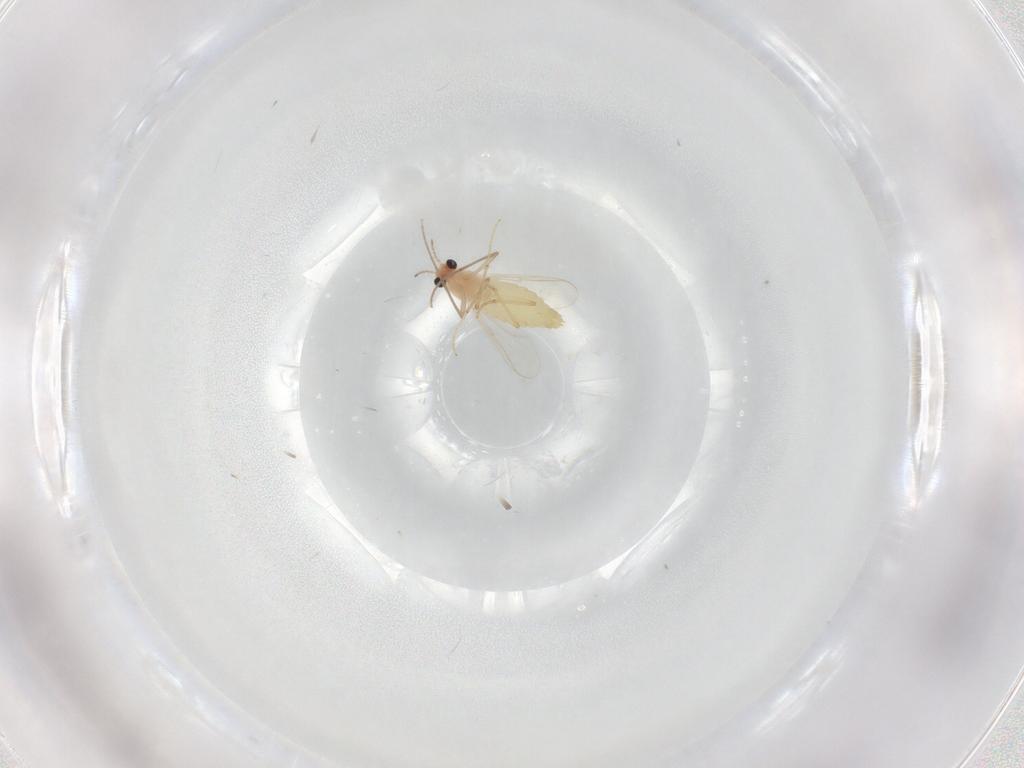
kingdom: Animalia
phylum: Arthropoda
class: Insecta
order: Diptera
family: Chironomidae
